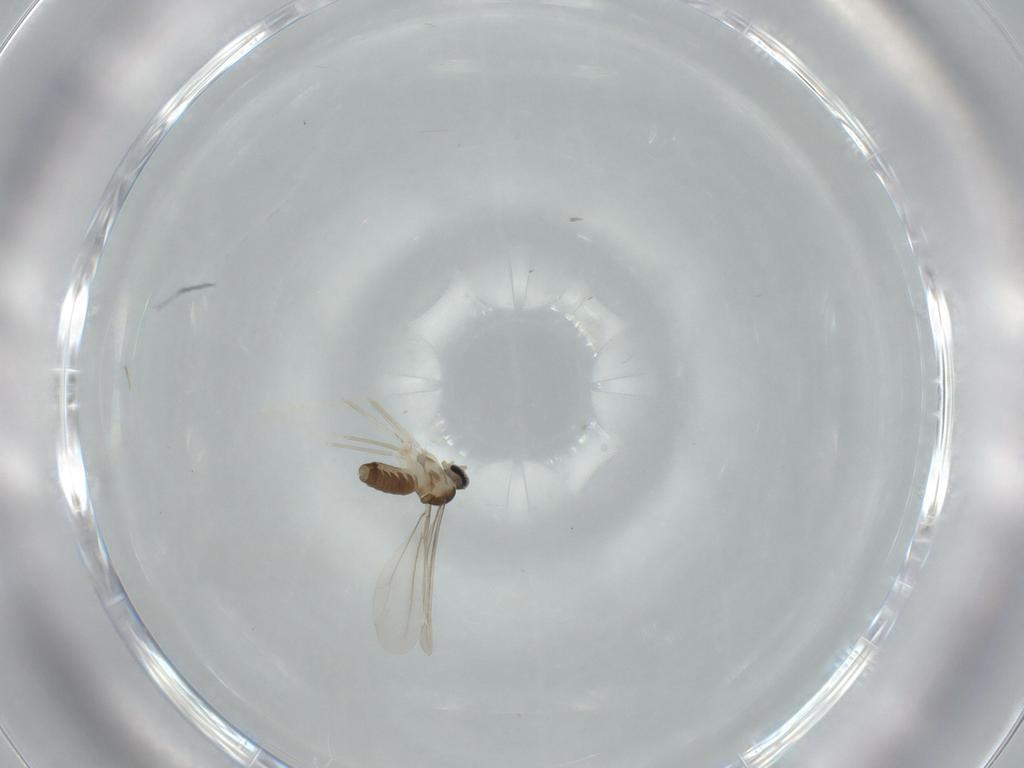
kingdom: Animalia
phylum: Arthropoda
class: Insecta
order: Diptera
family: Cecidomyiidae
